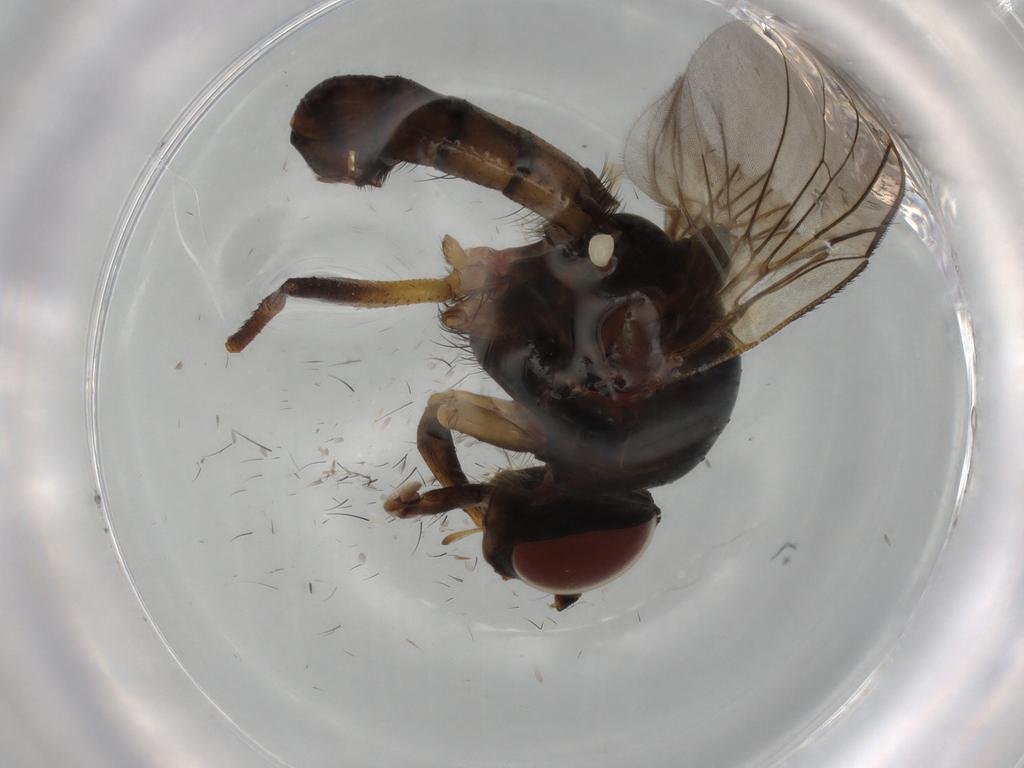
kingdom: Animalia
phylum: Arthropoda
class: Insecta
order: Diptera
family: Anthomyiidae
